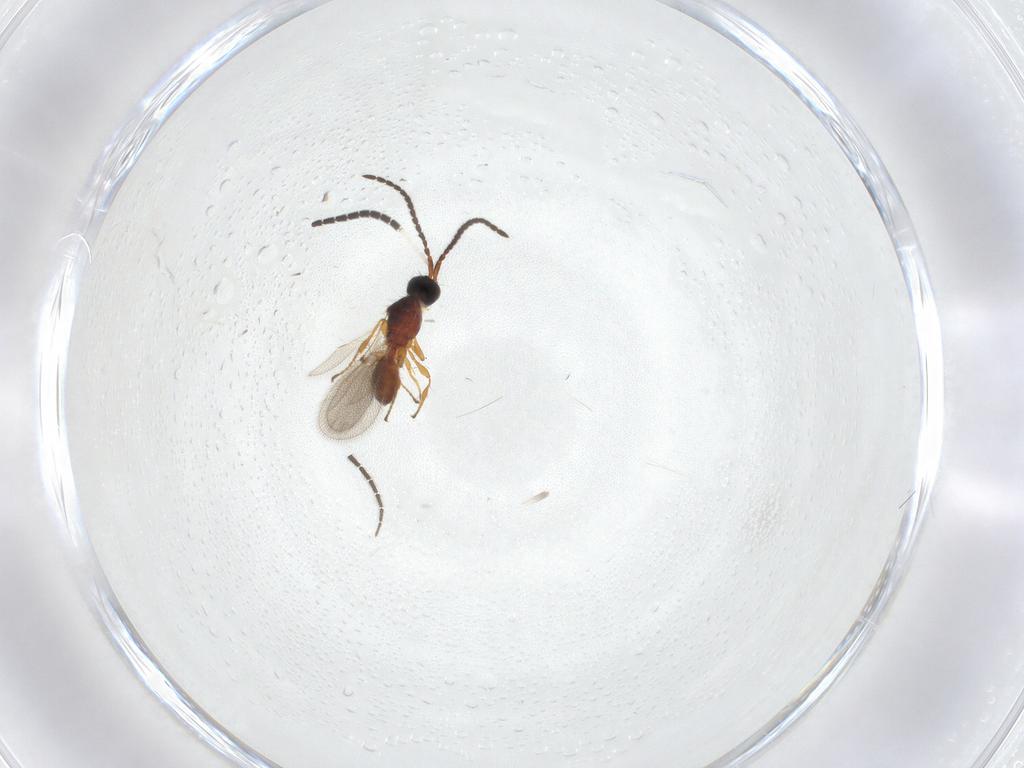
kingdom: Animalia
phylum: Arthropoda
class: Insecta
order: Hymenoptera
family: Diapriidae
